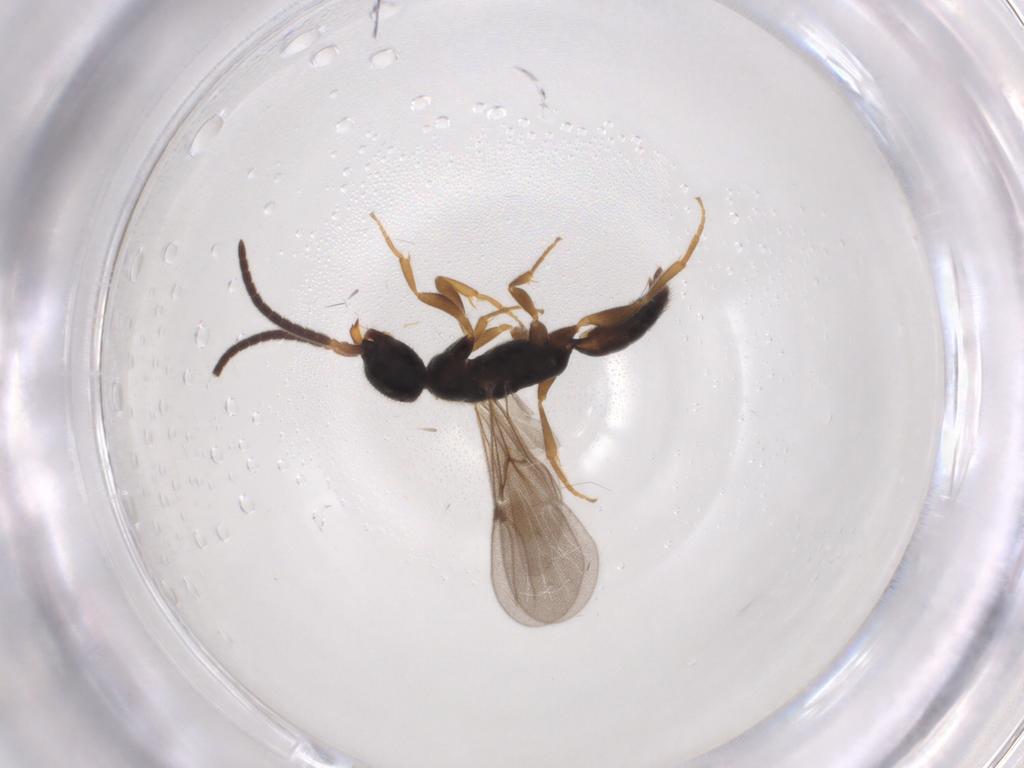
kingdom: Animalia
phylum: Arthropoda
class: Insecta
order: Hymenoptera
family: Bethylidae
